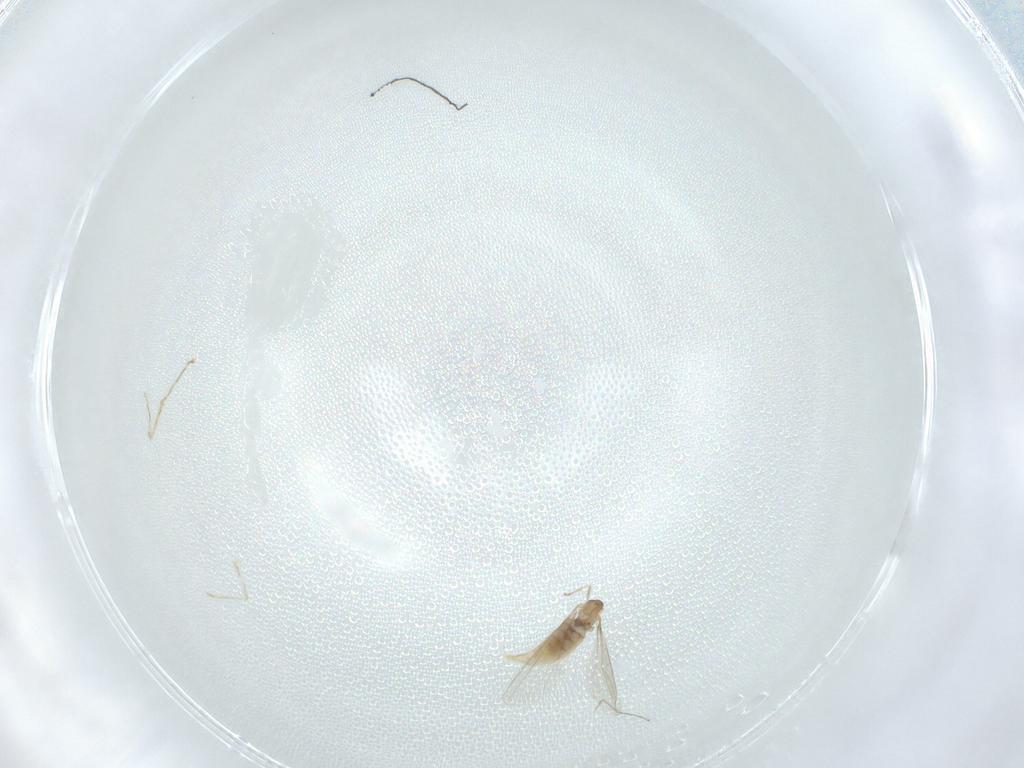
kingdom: Animalia
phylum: Arthropoda
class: Insecta
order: Diptera
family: Cecidomyiidae
